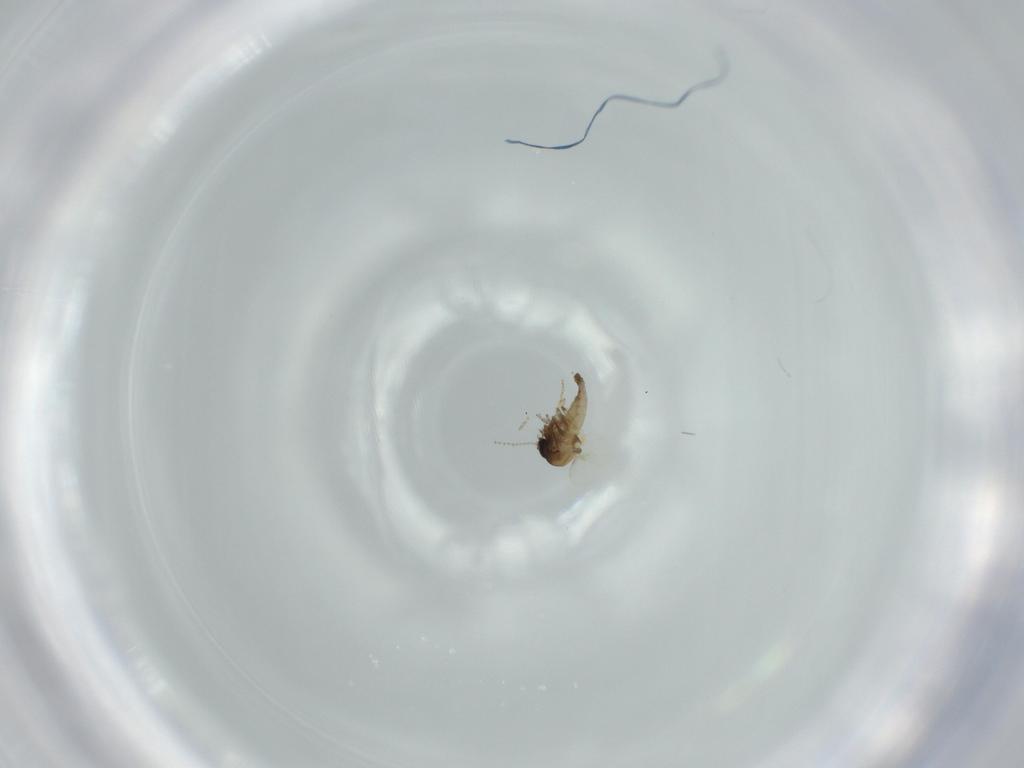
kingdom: Animalia
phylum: Arthropoda
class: Insecta
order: Diptera
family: Ceratopogonidae
